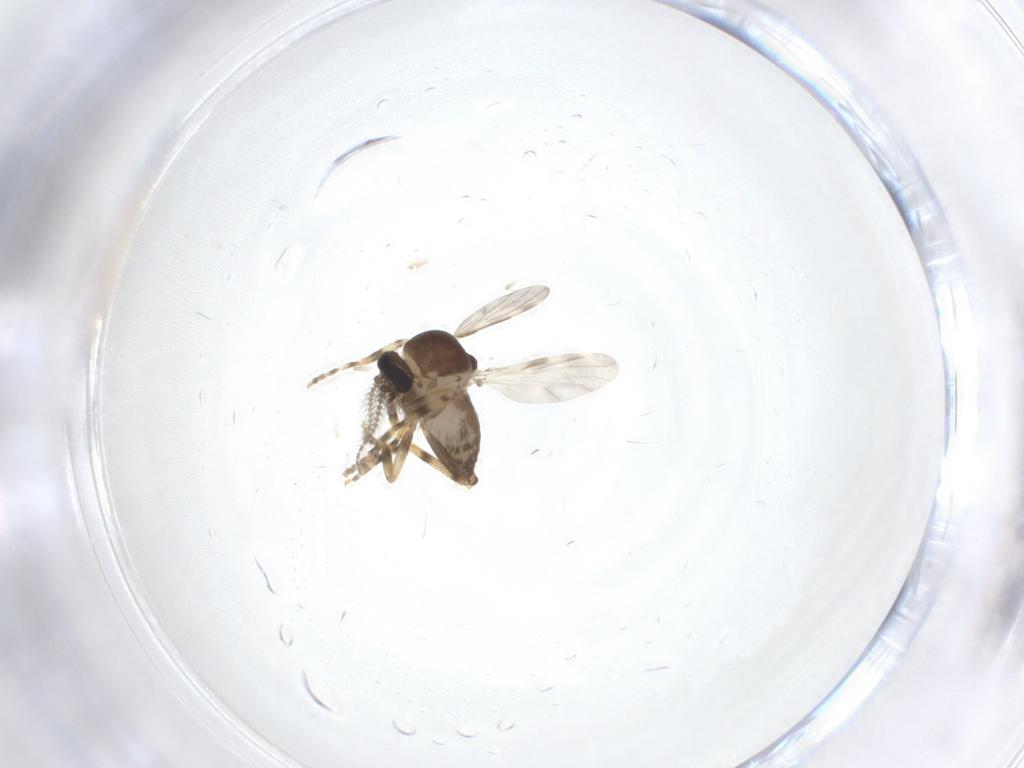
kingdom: Animalia
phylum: Arthropoda
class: Insecta
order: Diptera
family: Ceratopogonidae
